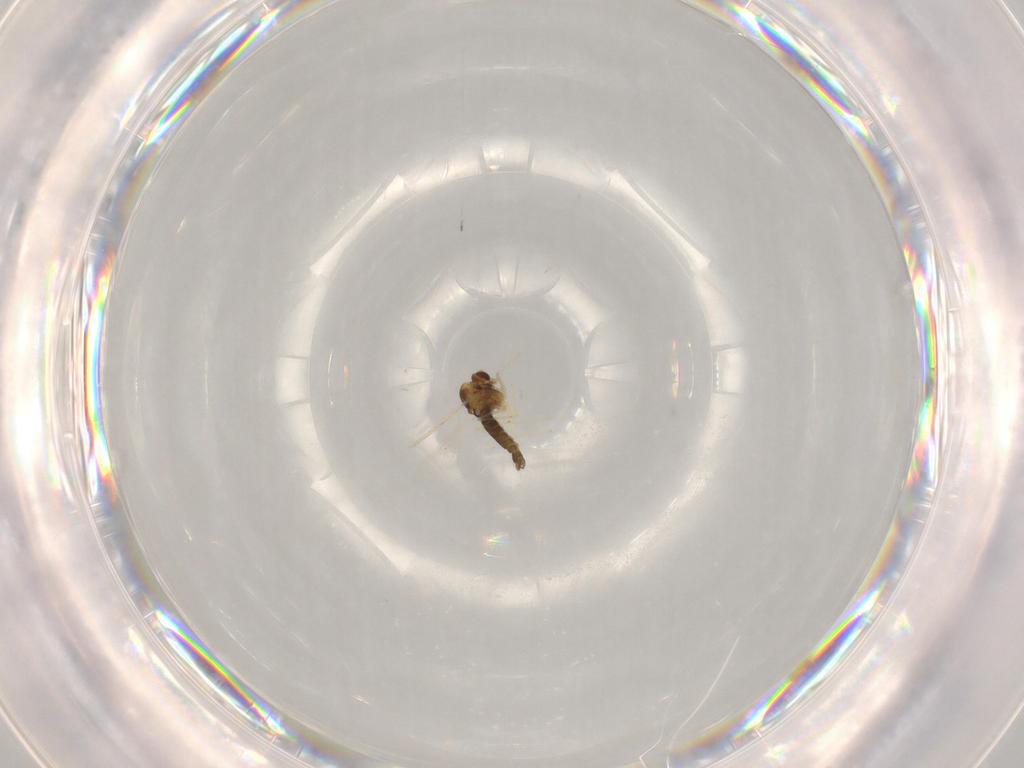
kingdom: Animalia
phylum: Arthropoda
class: Insecta
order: Diptera
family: Chironomidae
